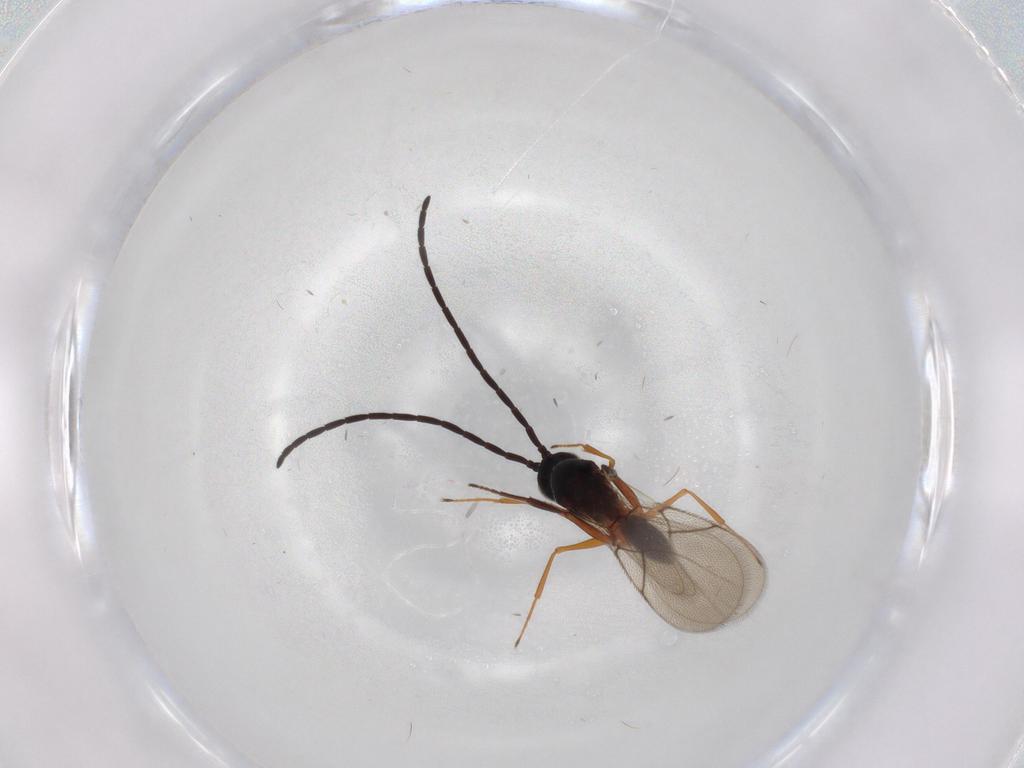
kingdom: Animalia
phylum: Arthropoda
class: Insecta
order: Hymenoptera
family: Figitidae
